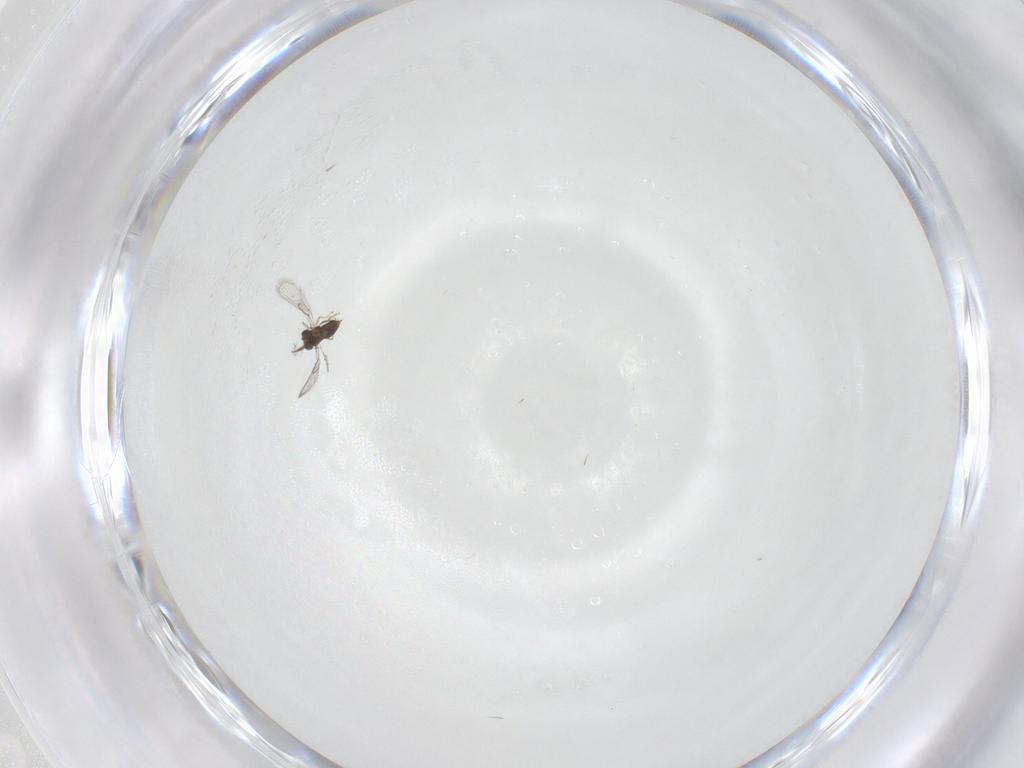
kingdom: Animalia
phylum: Arthropoda
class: Insecta
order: Hymenoptera
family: Trichogrammatidae
